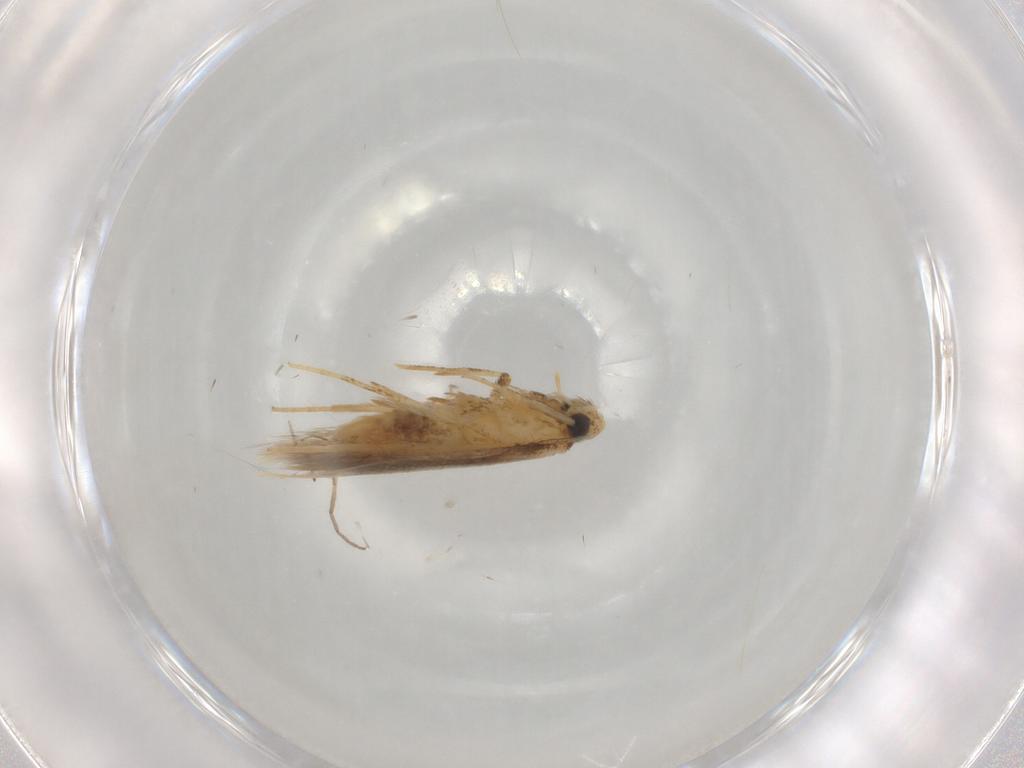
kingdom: Animalia
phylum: Arthropoda
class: Insecta
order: Lepidoptera
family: Tischeriidae
